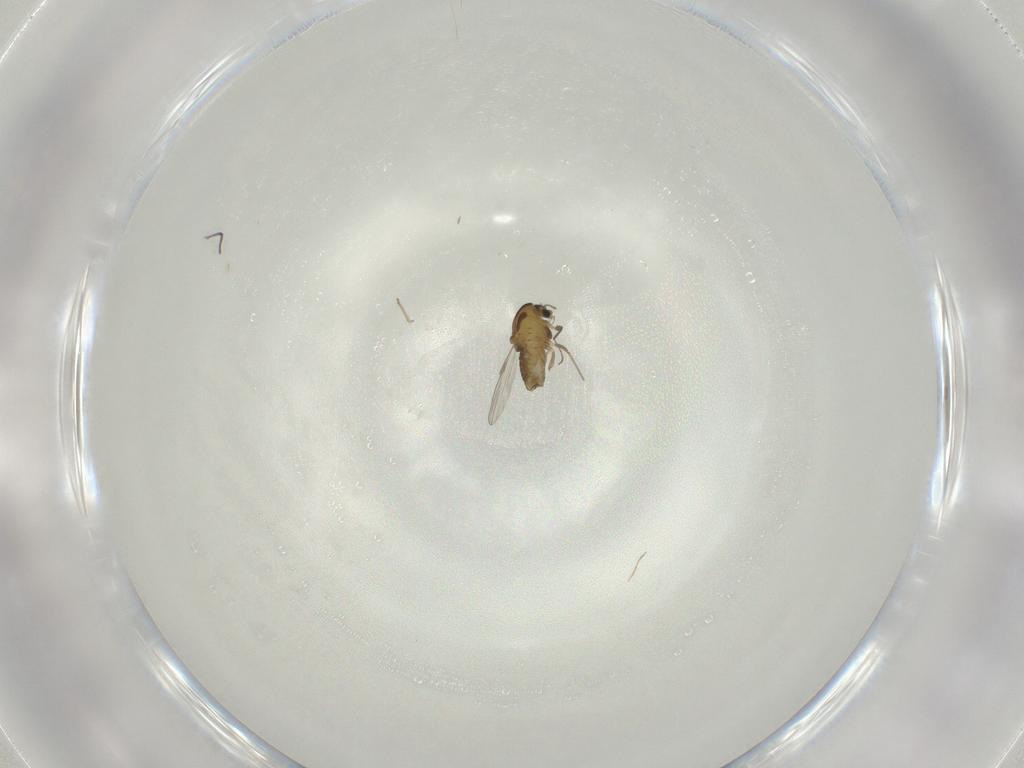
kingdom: Animalia
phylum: Arthropoda
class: Insecta
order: Diptera
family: Chironomidae
